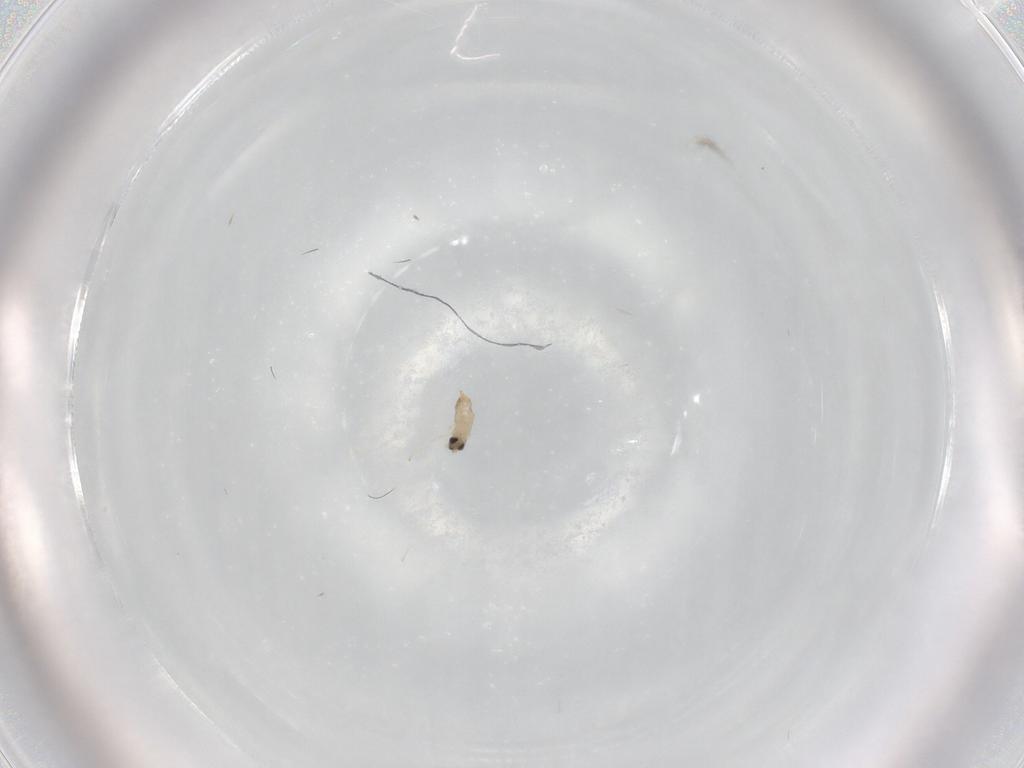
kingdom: Animalia
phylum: Arthropoda
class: Insecta
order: Diptera
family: Cecidomyiidae
